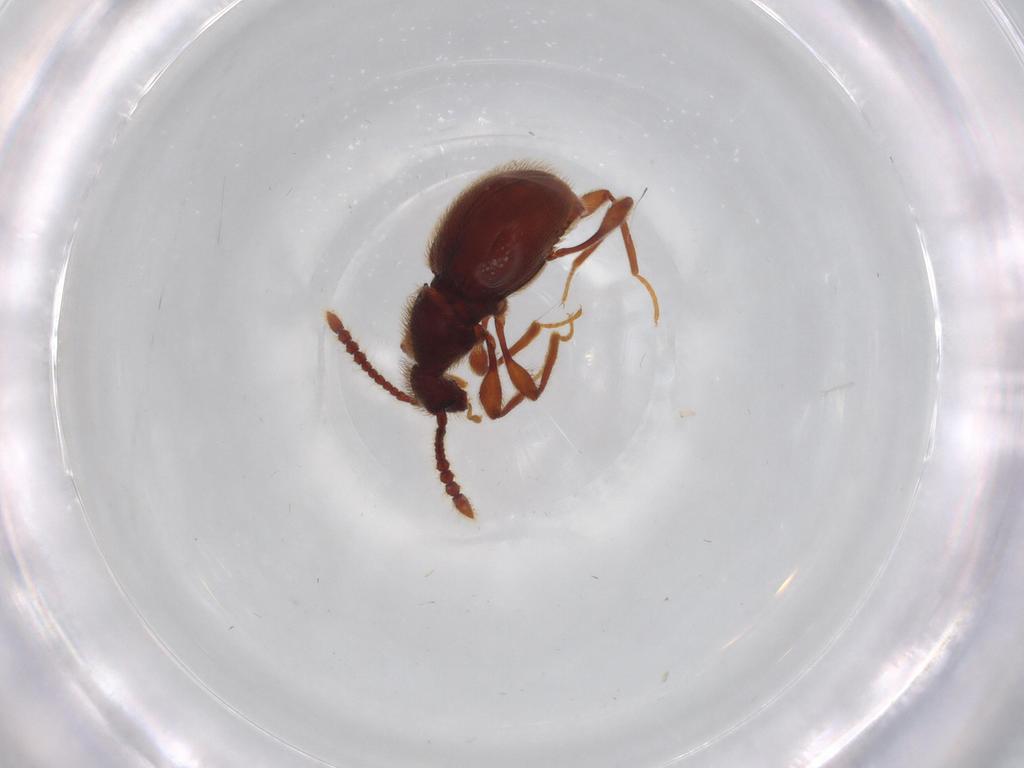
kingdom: Animalia
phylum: Arthropoda
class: Insecta
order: Coleoptera
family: Staphylinidae
